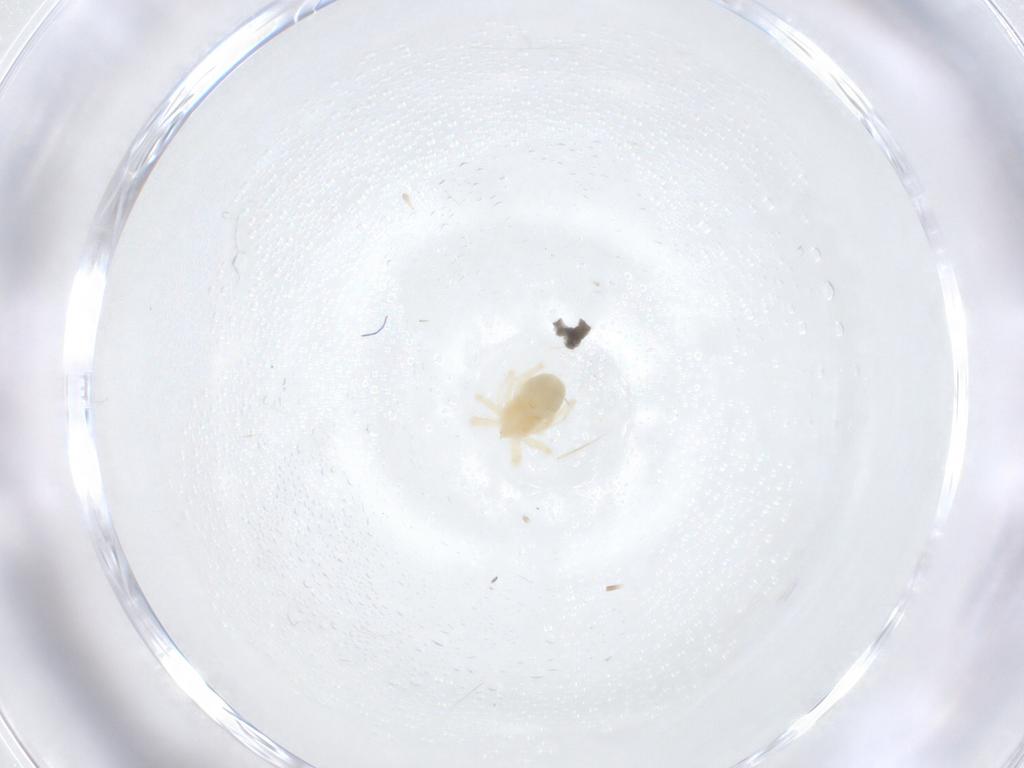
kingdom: Animalia
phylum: Arthropoda
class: Arachnida
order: Trombidiformes
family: Anystidae
